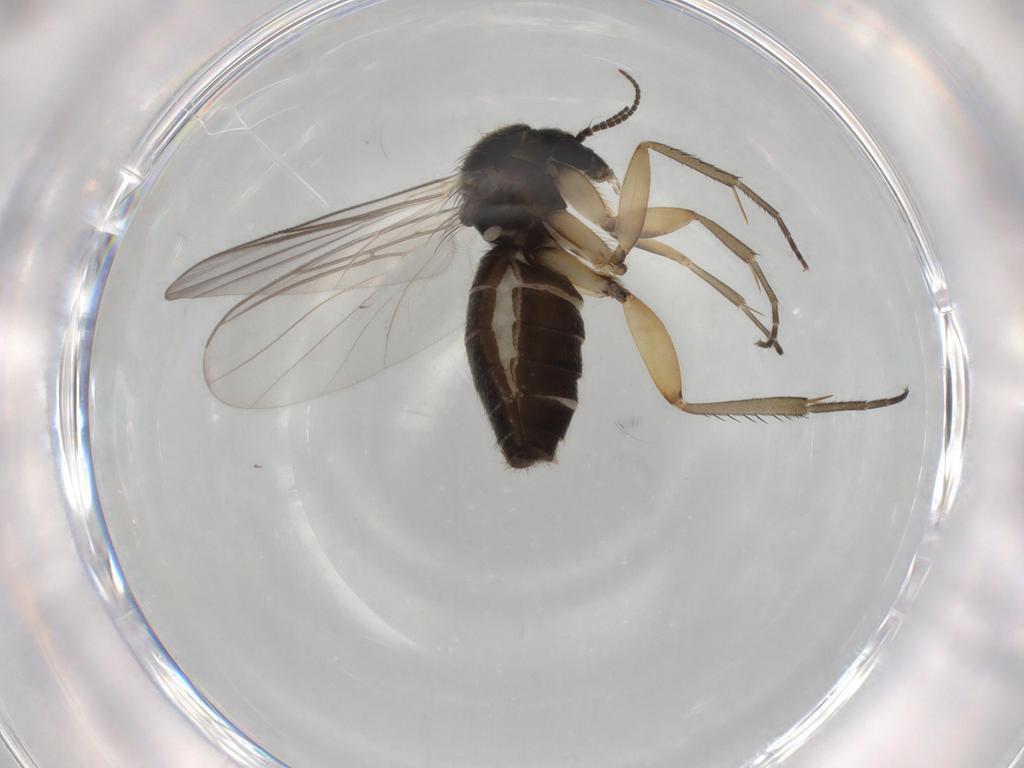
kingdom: Animalia
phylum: Arthropoda
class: Insecta
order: Diptera
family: Mycetophilidae
